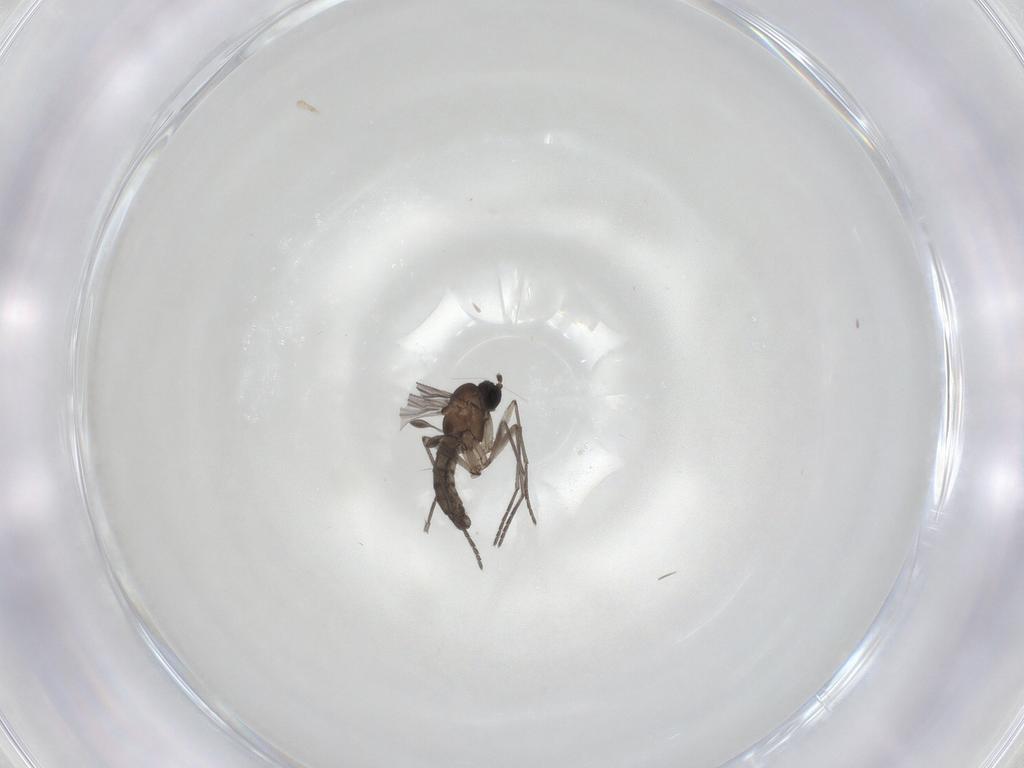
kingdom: Animalia
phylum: Arthropoda
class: Insecta
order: Diptera
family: Sciaridae
